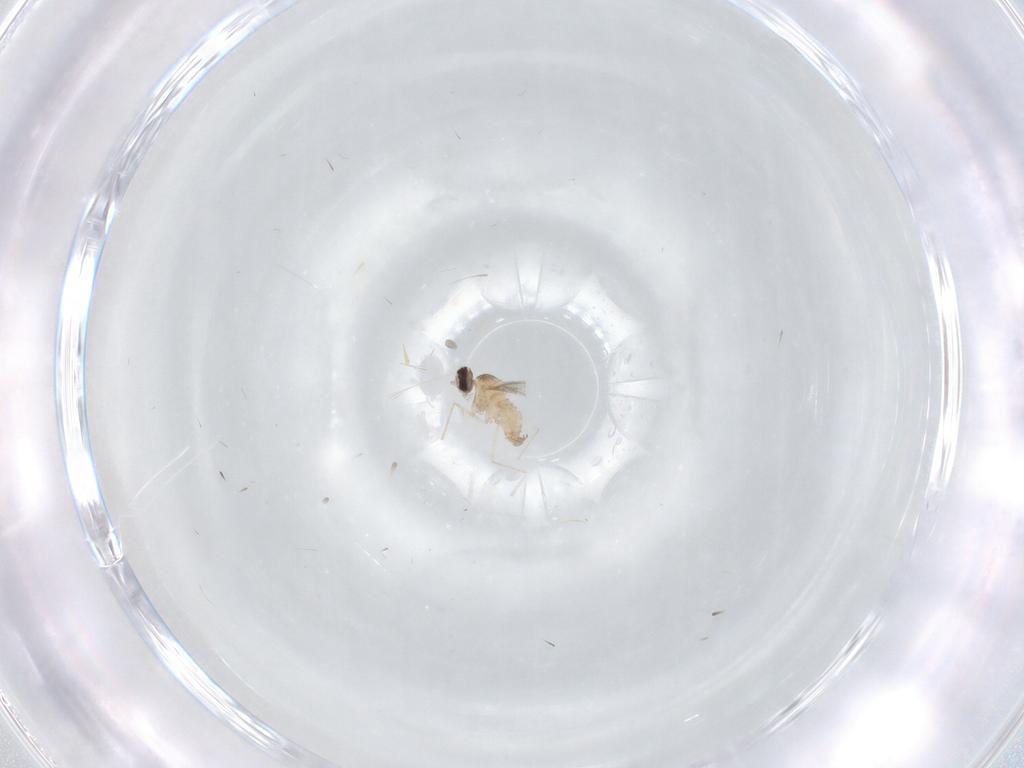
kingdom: Animalia
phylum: Arthropoda
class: Insecta
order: Diptera
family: Cecidomyiidae
